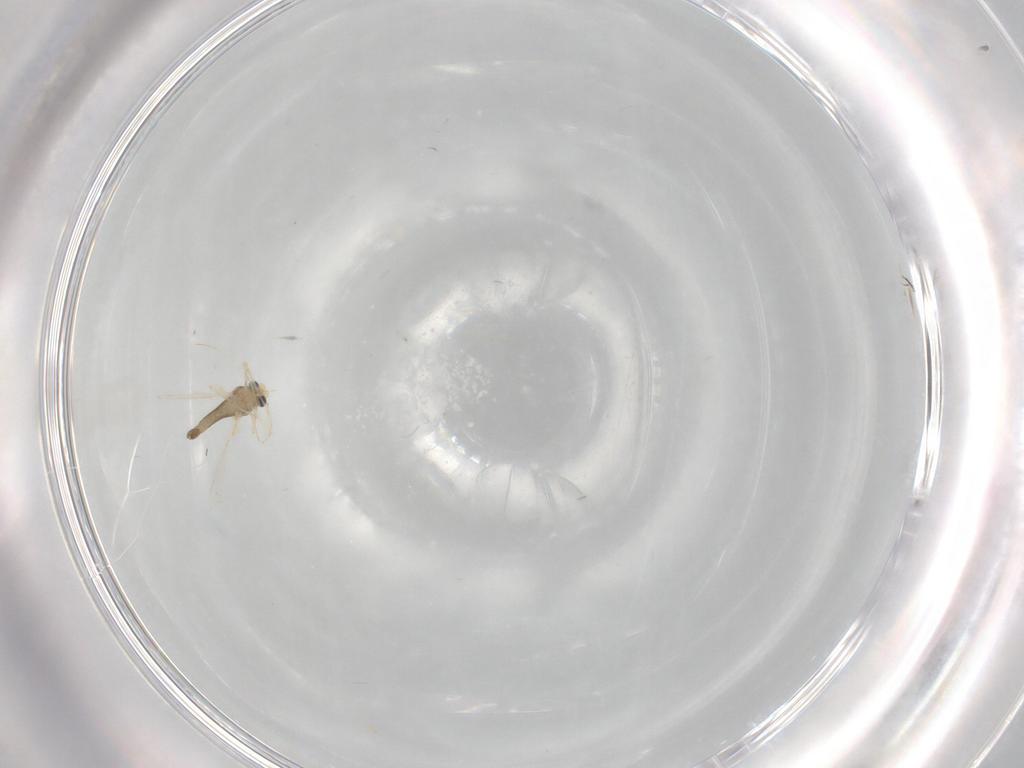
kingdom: Animalia
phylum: Arthropoda
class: Insecta
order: Diptera
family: Chironomidae
